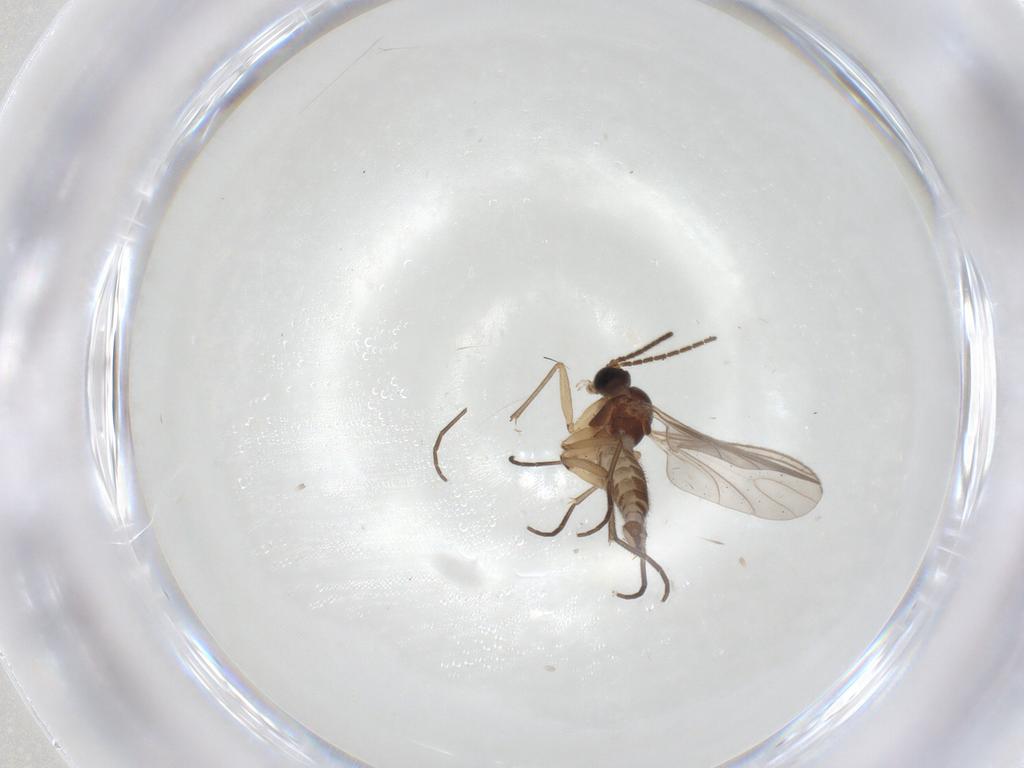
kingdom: Animalia
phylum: Arthropoda
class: Insecta
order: Diptera
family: Sciaridae
